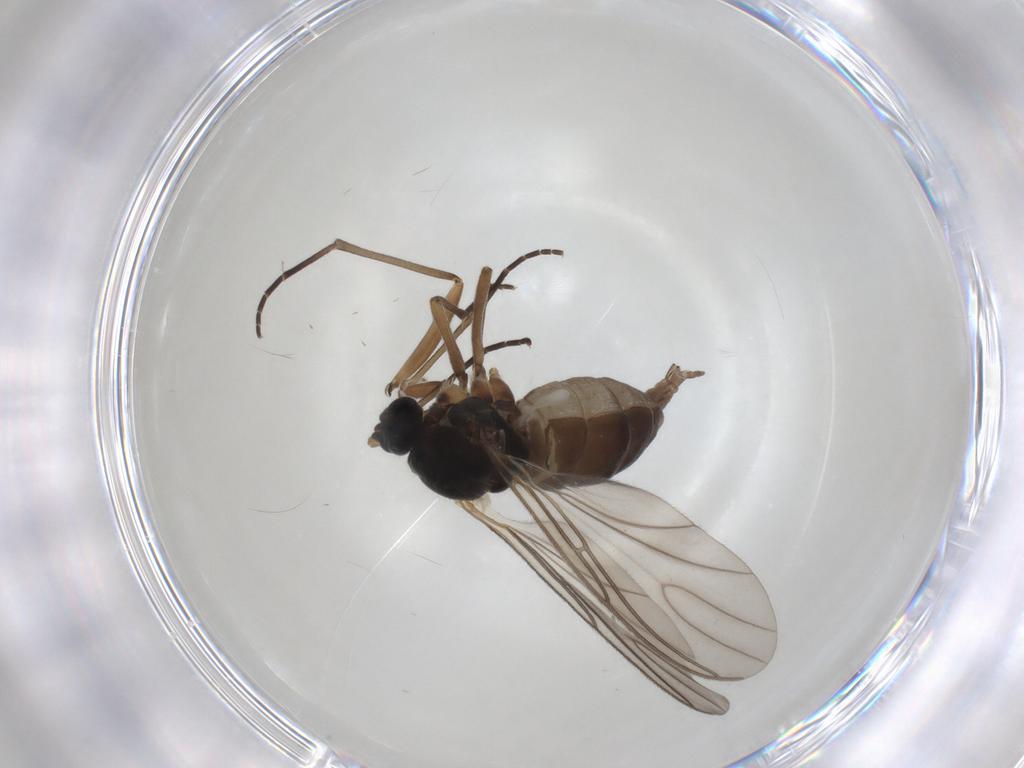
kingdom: Animalia
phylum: Arthropoda
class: Insecta
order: Diptera
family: Sciaridae
